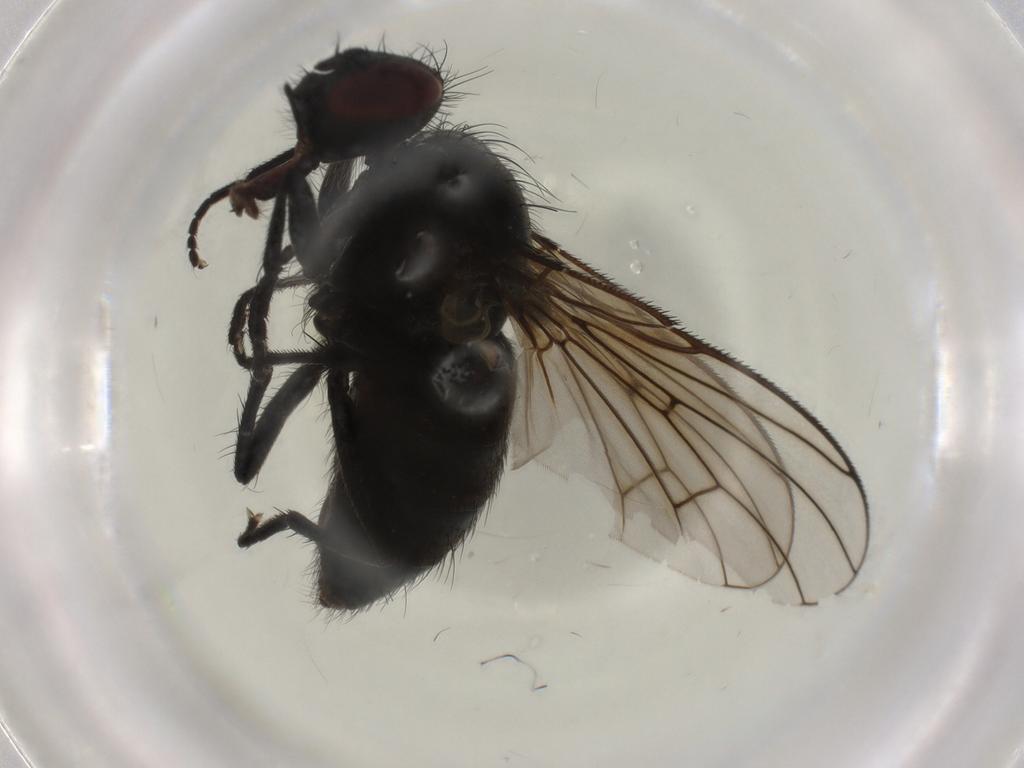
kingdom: Animalia
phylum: Arthropoda
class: Insecta
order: Diptera
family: Muscidae
